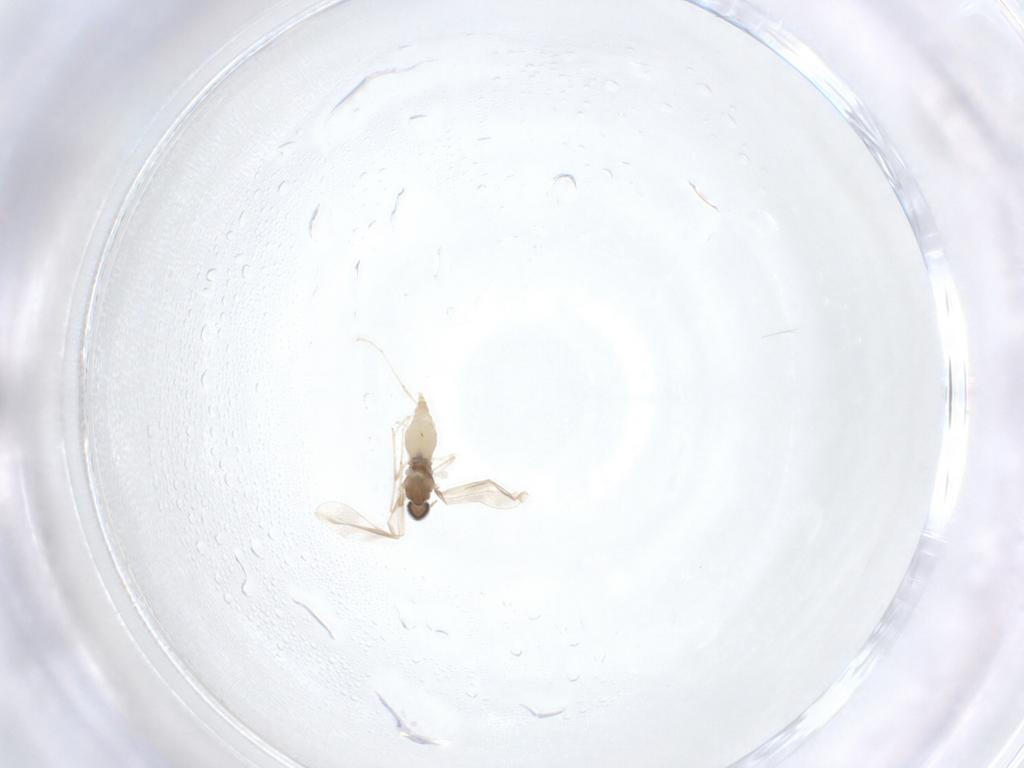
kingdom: Animalia
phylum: Arthropoda
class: Insecta
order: Diptera
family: Cecidomyiidae
